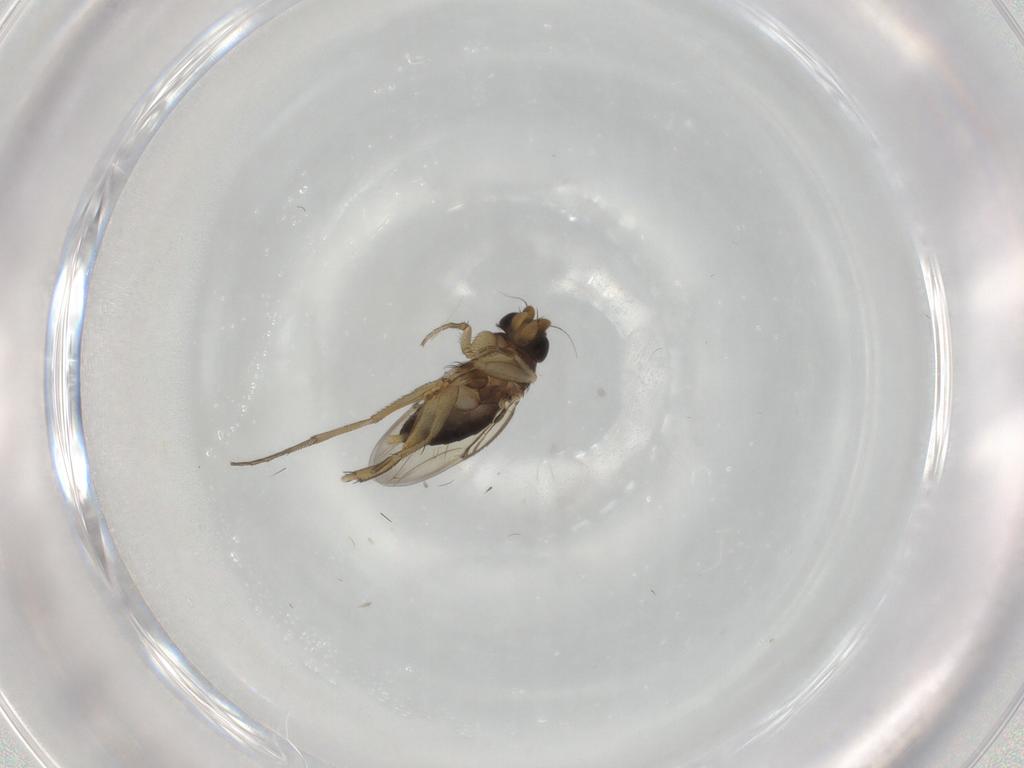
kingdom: Animalia
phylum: Arthropoda
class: Insecta
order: Diptera
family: Phoridae
